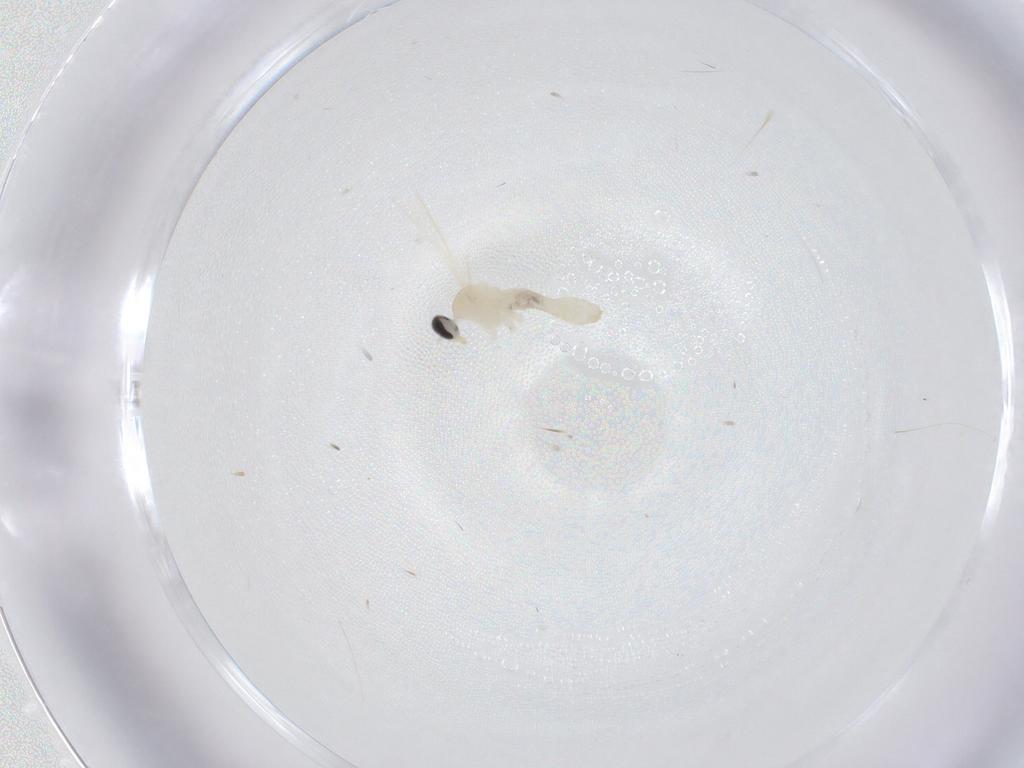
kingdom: Animalia
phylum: Arthropoda
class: Insecta
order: Diptera
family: Cecidomyiidae
